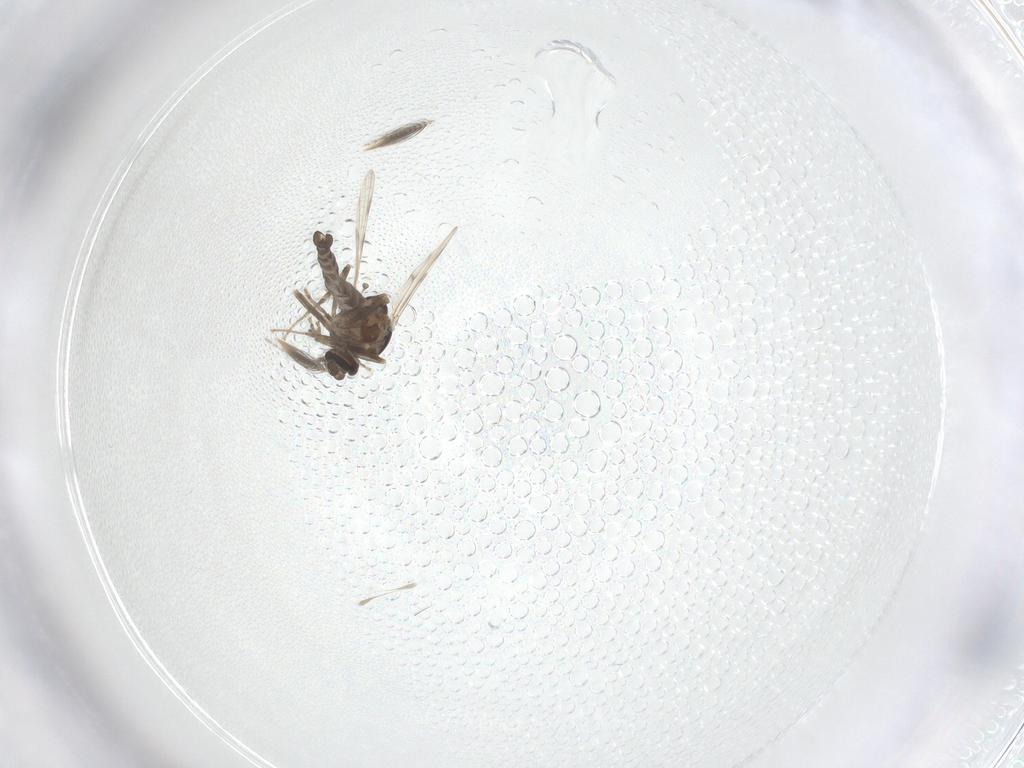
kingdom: Animalia
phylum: Arthropoda
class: Insecta
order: Diptera
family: Ceratopogonidae
